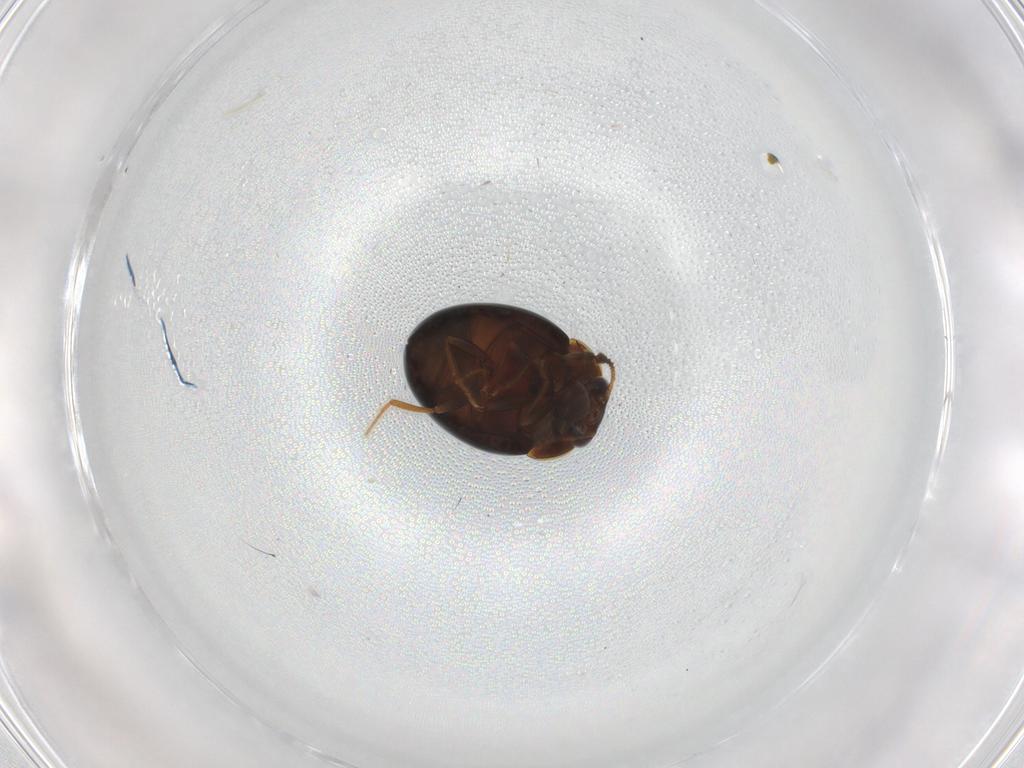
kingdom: Animalia
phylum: Arthropoda
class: Insecta
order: Coleoptera
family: Leiodidae
